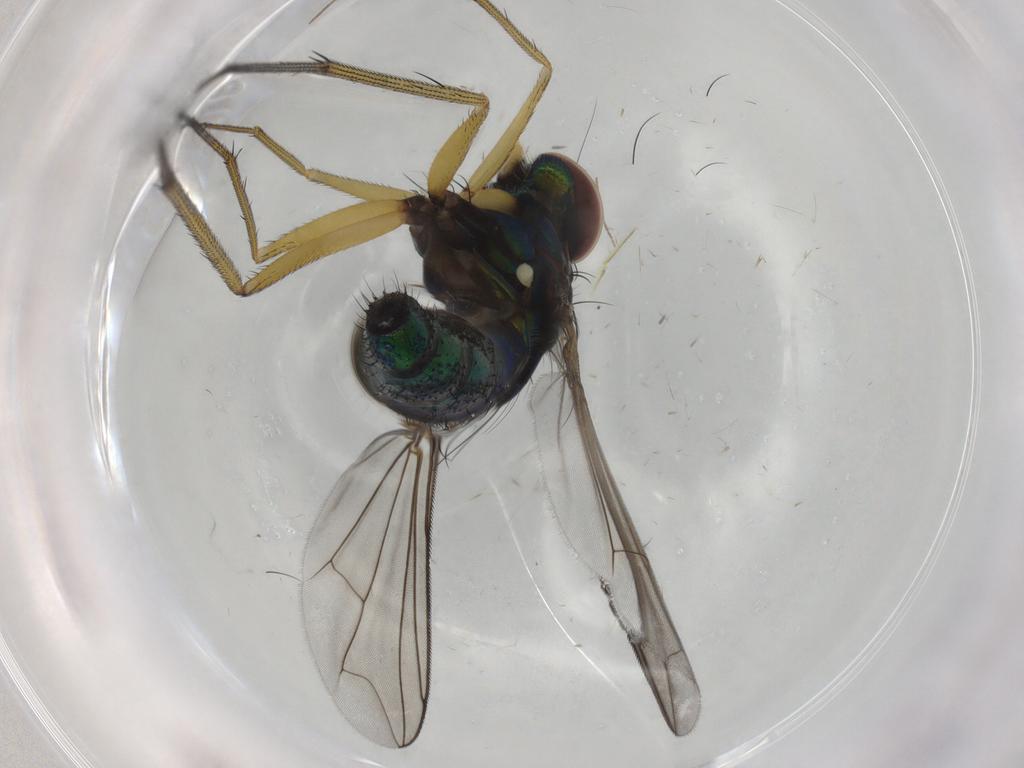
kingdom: Animalia
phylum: Arthropoda
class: Insecta
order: Diptera
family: Dolichopodidae
